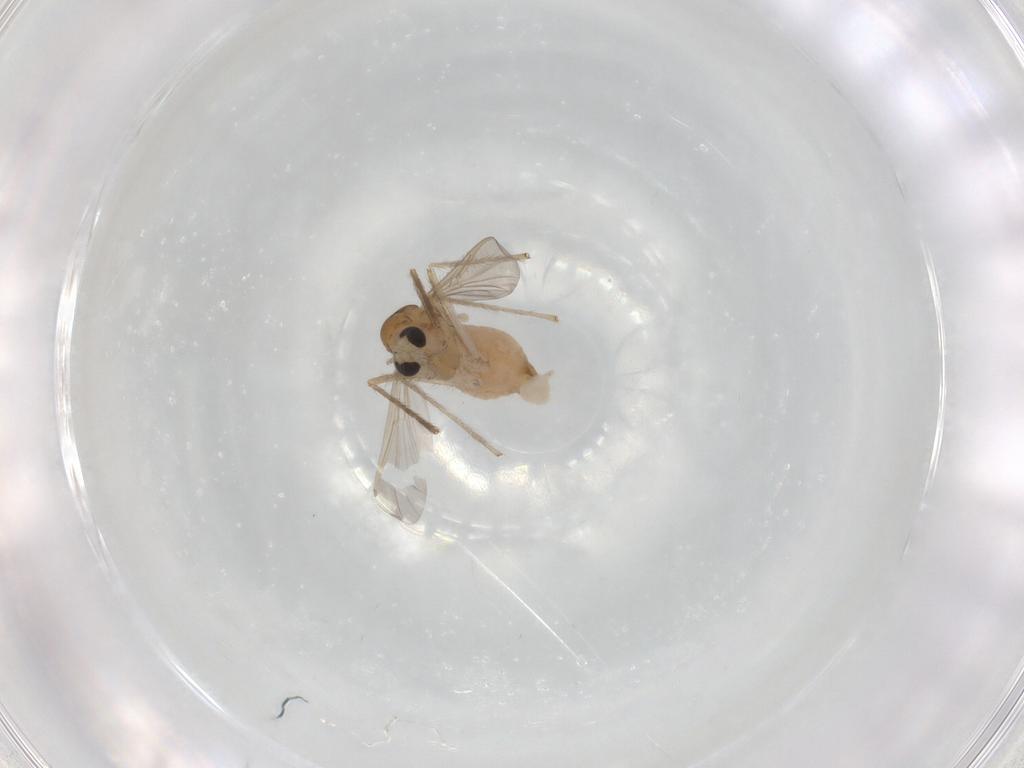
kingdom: Animalia
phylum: Arthropoda
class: Insecta
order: Diptera
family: Chironomidae
